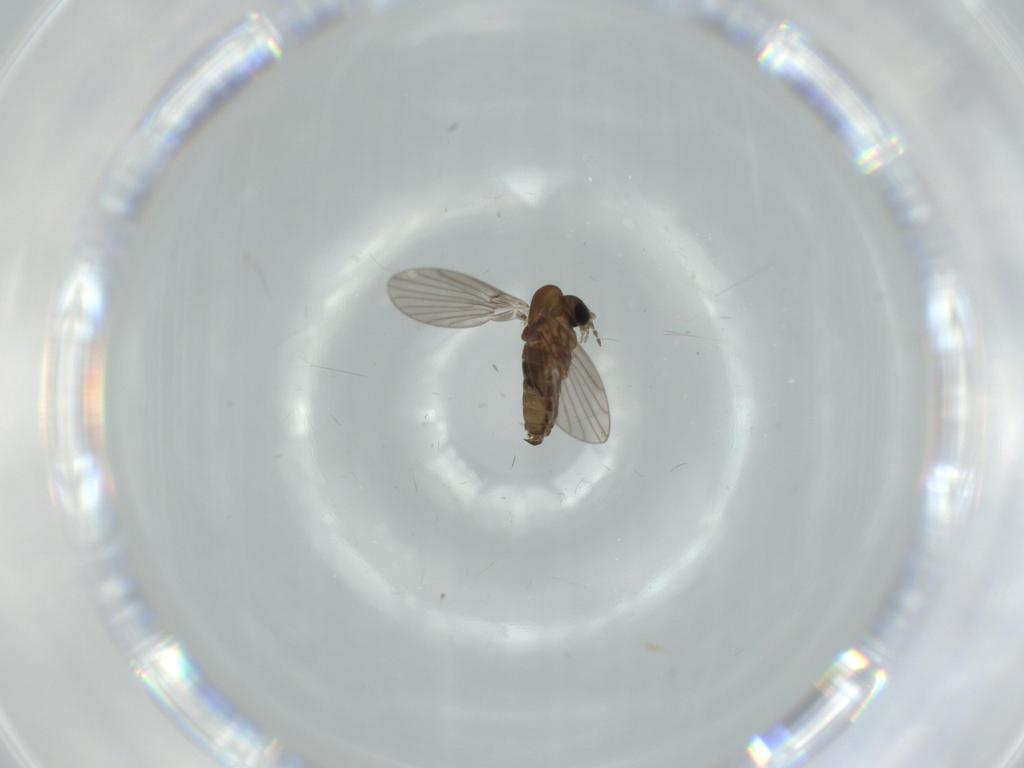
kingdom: Animalia
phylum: Arthropoda
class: Insecta
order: Diptera
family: Psychodidae
